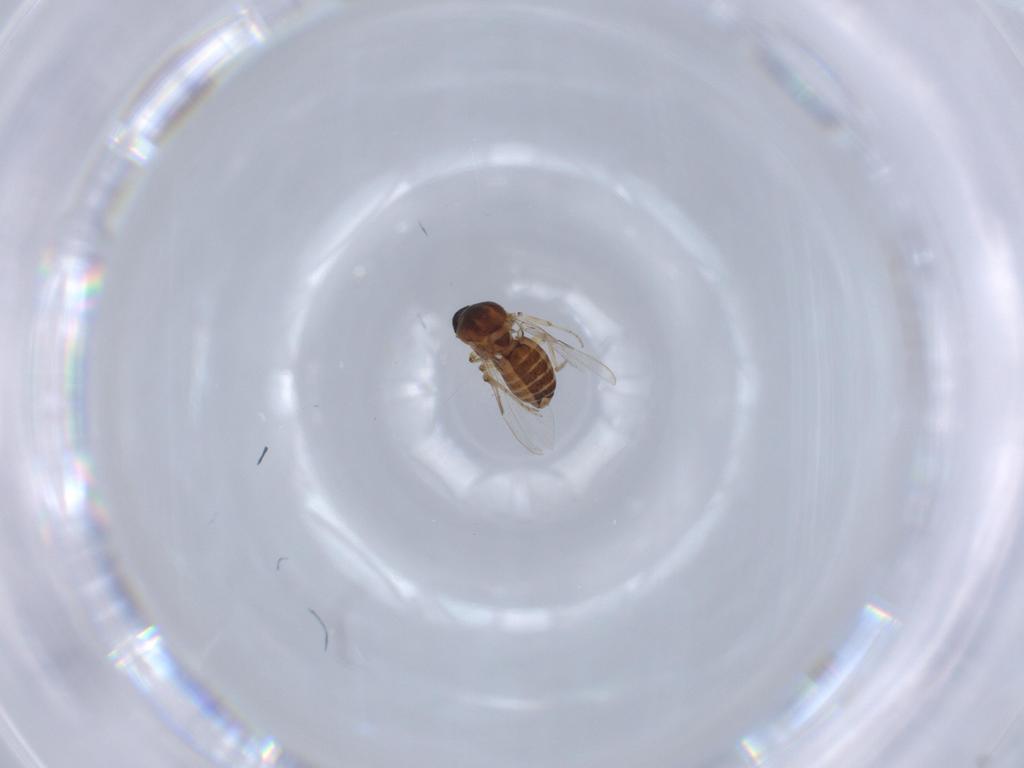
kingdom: Animalia
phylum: Arthropoda
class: Insecta
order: Diptera
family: Ceratopogonidae
